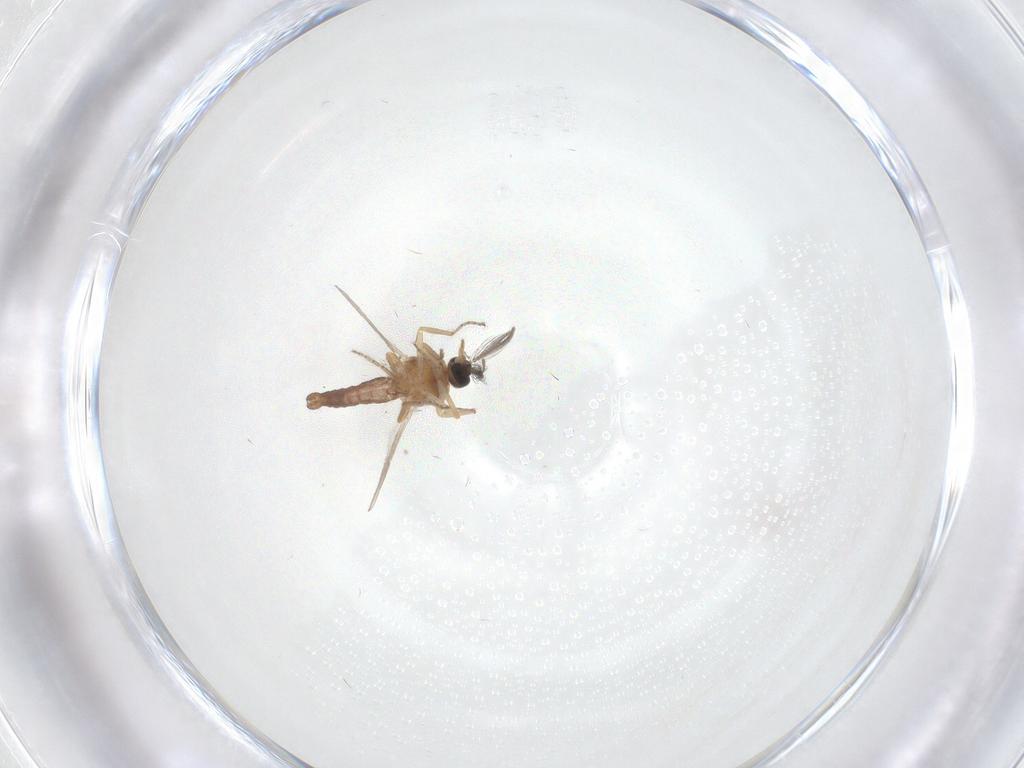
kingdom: Animalia
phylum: Arthropoda
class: Insecta
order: Diptera
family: Chironomidae
